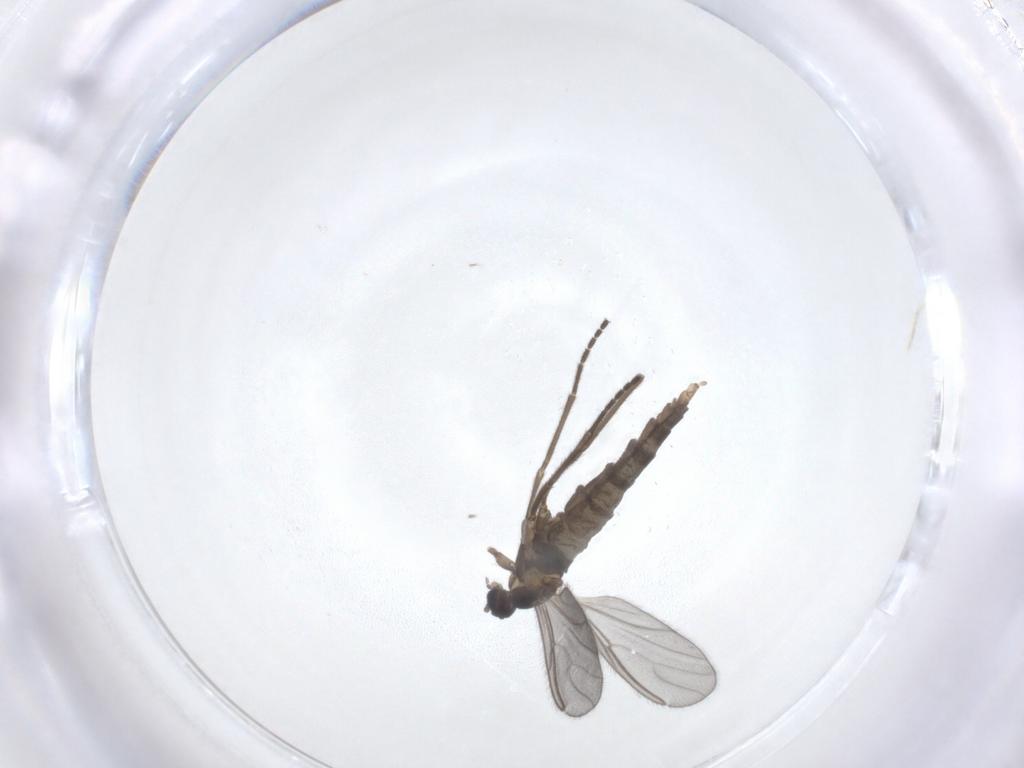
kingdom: Animalia
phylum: Arthropoda
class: Insecta
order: Diptera
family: Cecidomyiidae
